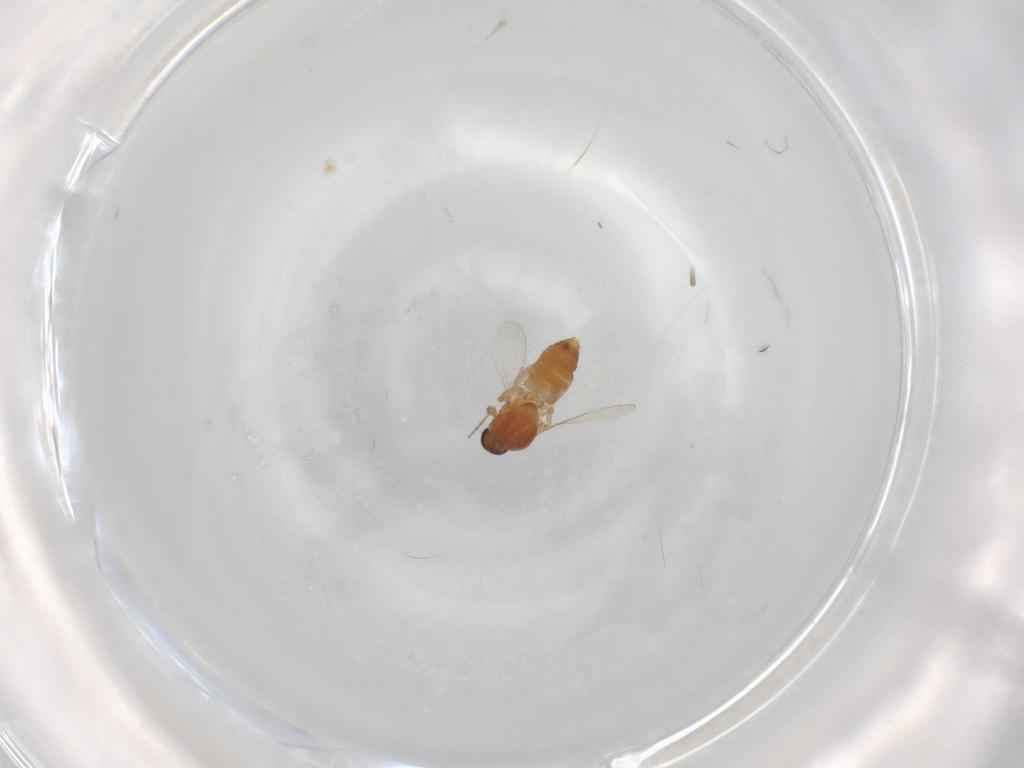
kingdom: Animalia
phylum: Arthropoda
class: Insecta
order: Diptera
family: Ceratopogonidae
